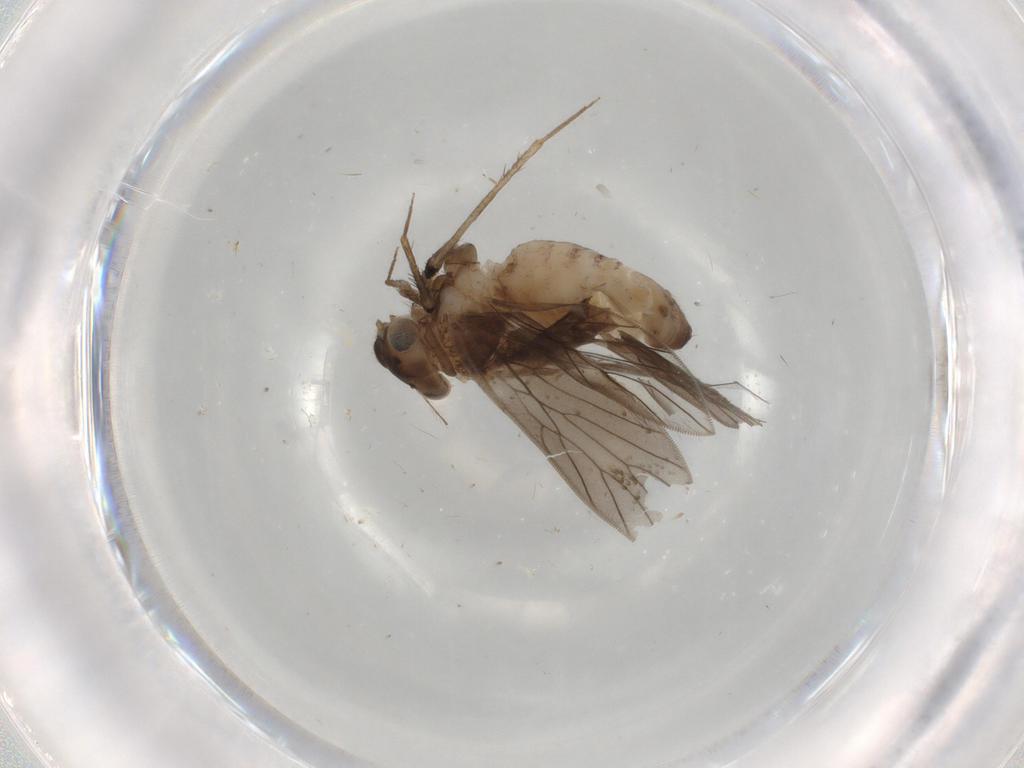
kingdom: Animalia
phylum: Arthropoda
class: Insecta
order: Psocodea
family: Lepidopsocidae
